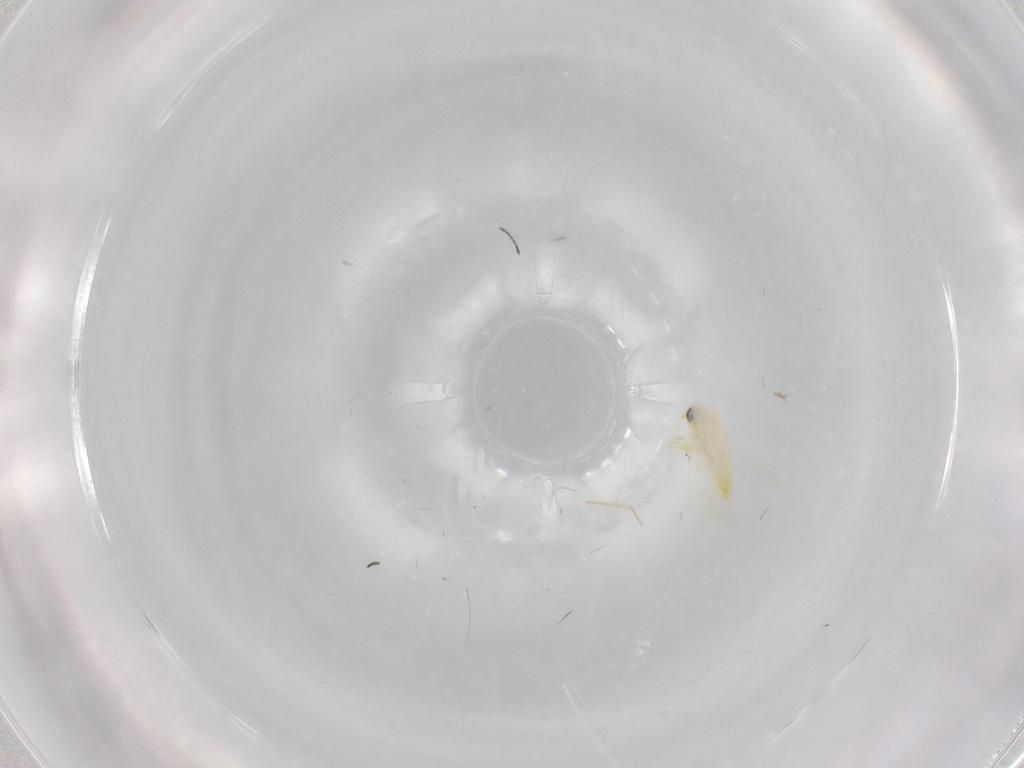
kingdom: Animalia
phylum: Arthropoda
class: Insecta
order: Hemiptera
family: Aleyrodidae
